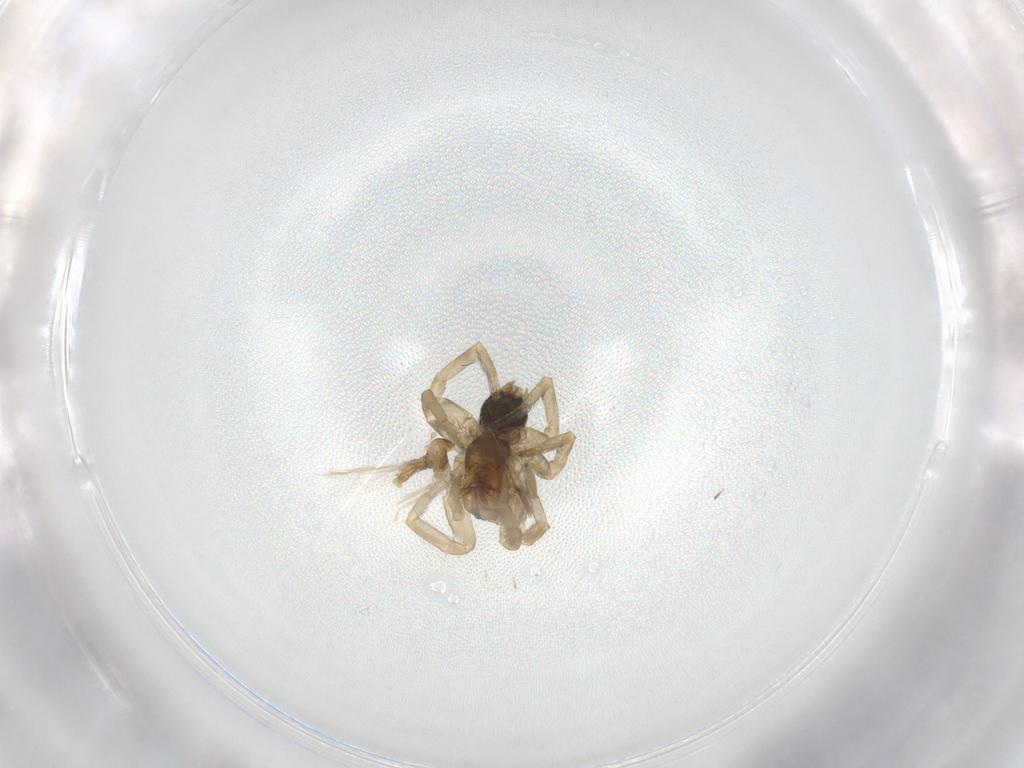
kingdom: Animalia
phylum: Arthropoda
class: Arachnida
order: Araneae
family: Hahniidae
